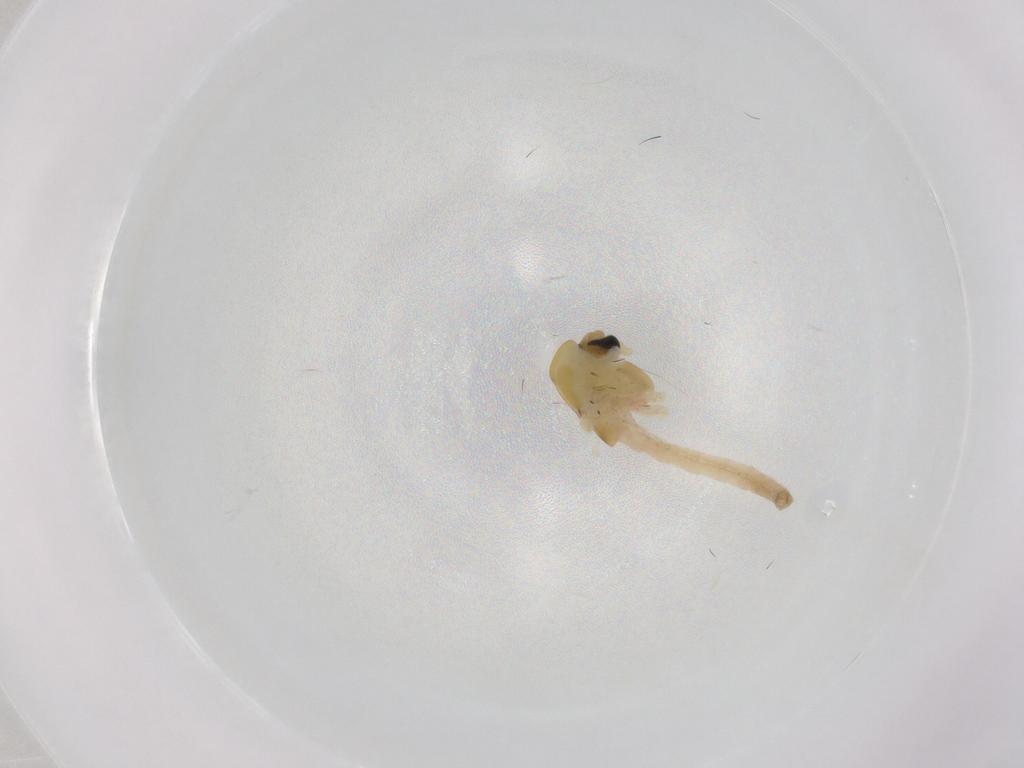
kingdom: Animalia
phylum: Arthropoda
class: Insecta
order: Diptera
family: Chironomidae
